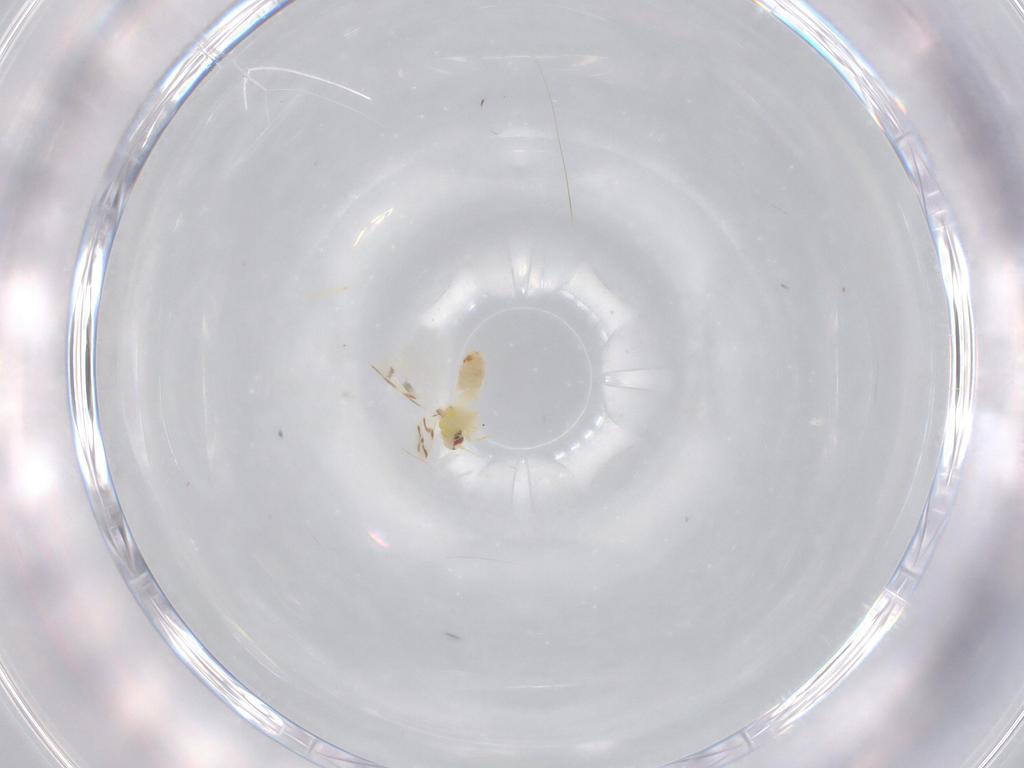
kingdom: Animalia
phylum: Arthropoda
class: Insecta
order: Hemiptera
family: Aleyrodidae
